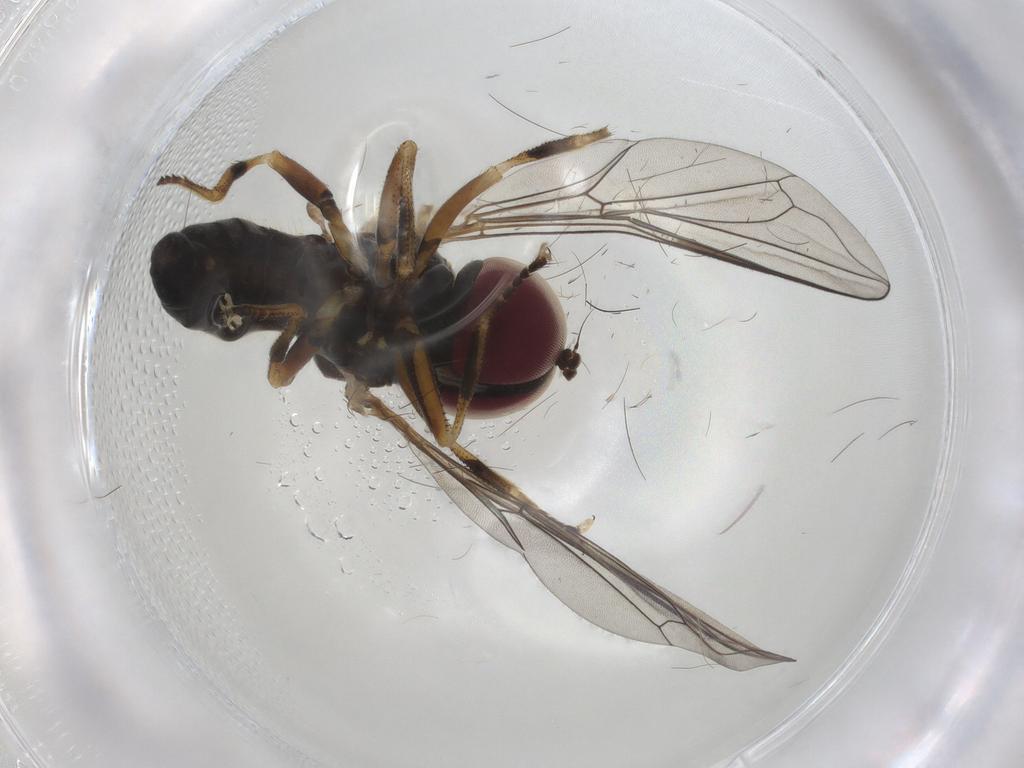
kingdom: Animalia
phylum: Arthropoda
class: Insecta
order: Diptera
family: Chironomidae
